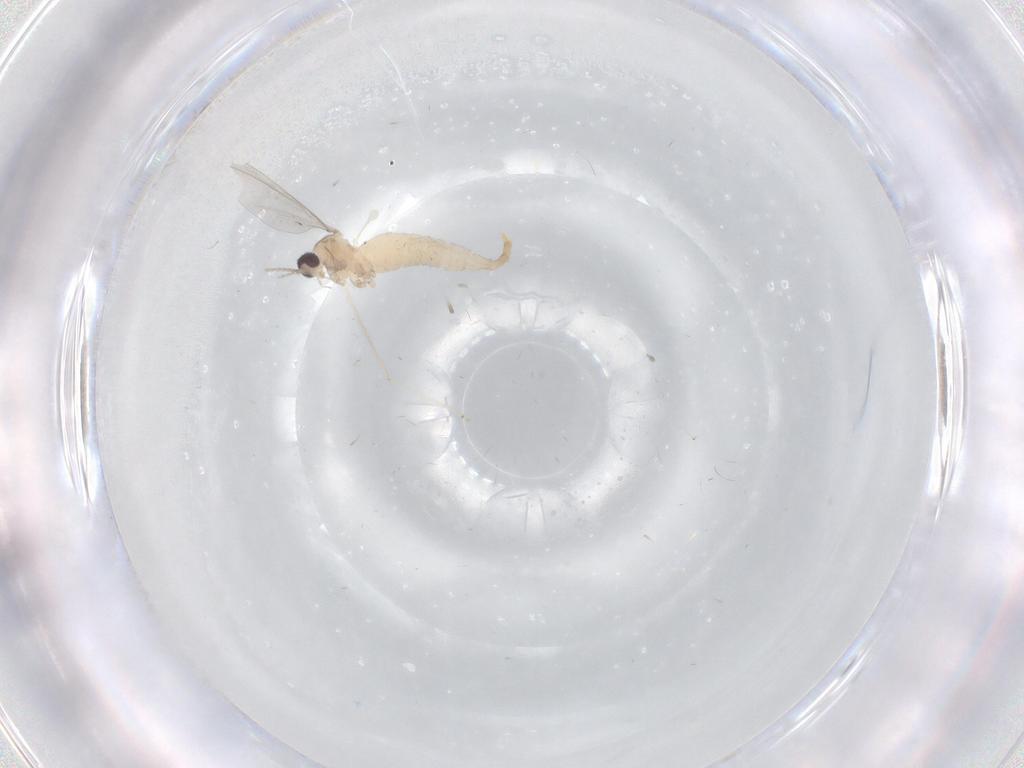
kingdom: Animalia
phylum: Arthropoda
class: Insecta
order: Diptera
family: Cecidomyiidae
